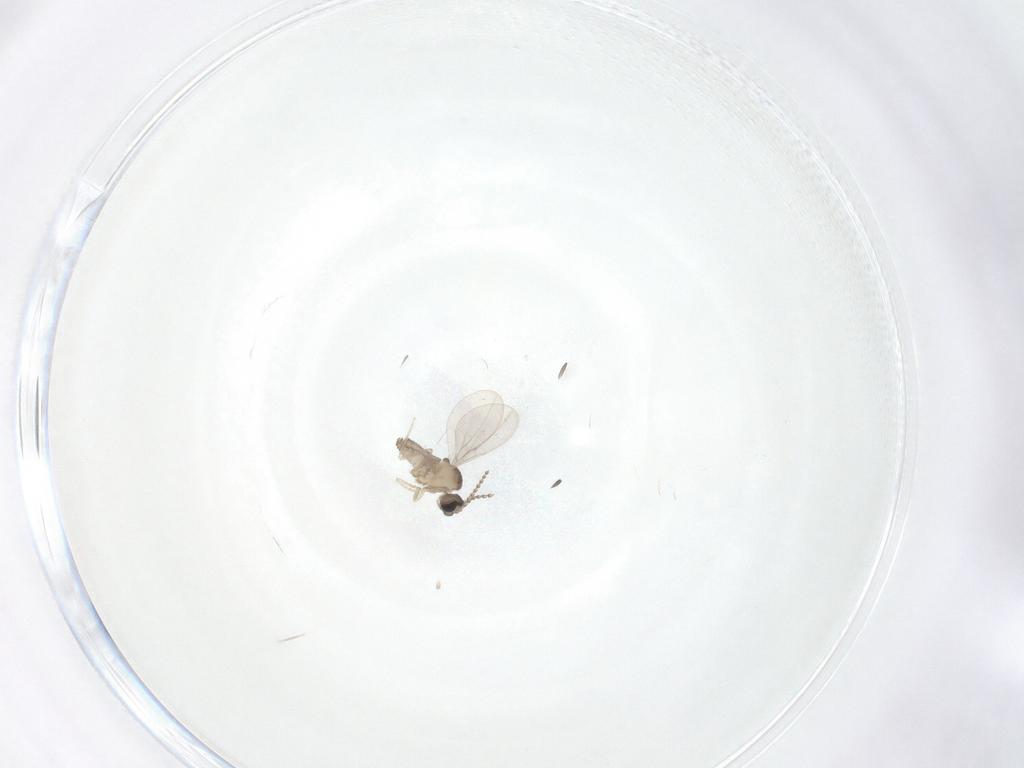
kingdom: Animalia
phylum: Arthropoda
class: Insecta
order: Diptera
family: Cecidomyiidae
